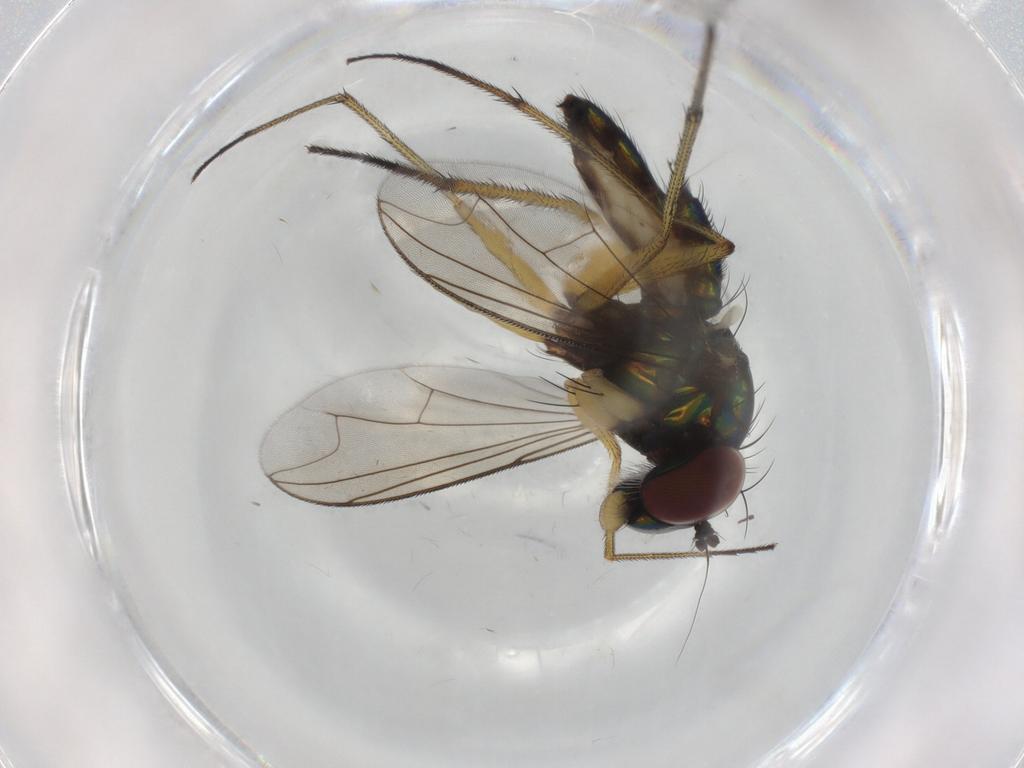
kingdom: Animalia
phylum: Arthropoda
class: Insecta
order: Diptera
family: Dolichopodidae
